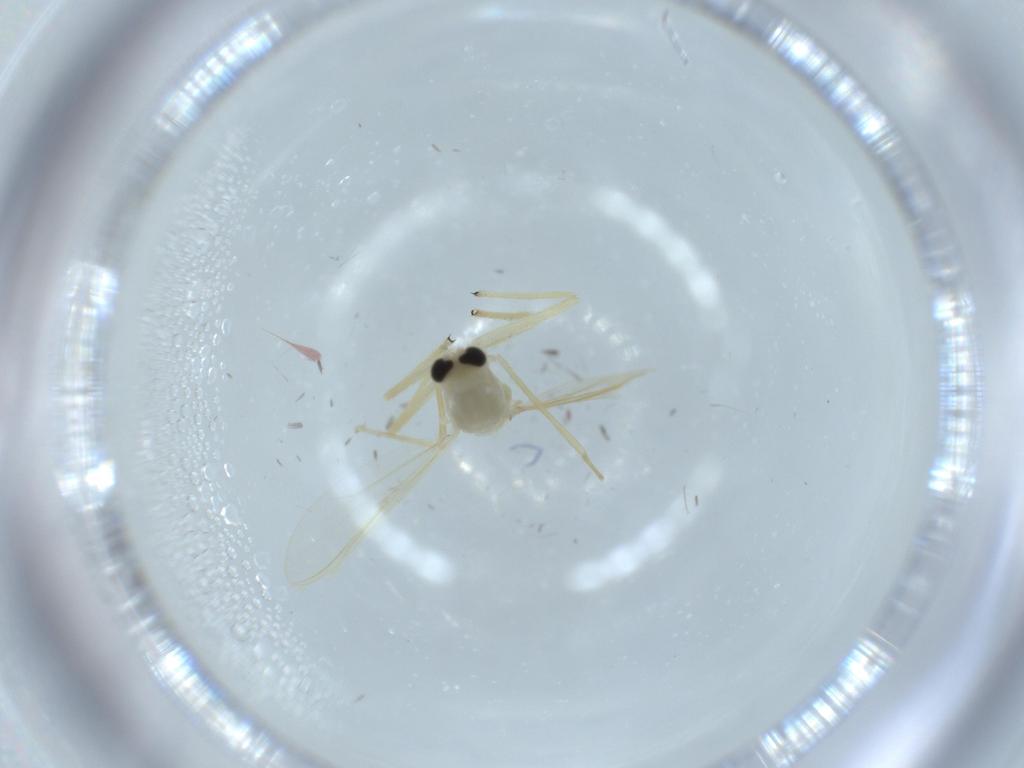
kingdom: Animalia
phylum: Arthropoda
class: Insecta
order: Diptera
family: Chironomidae
